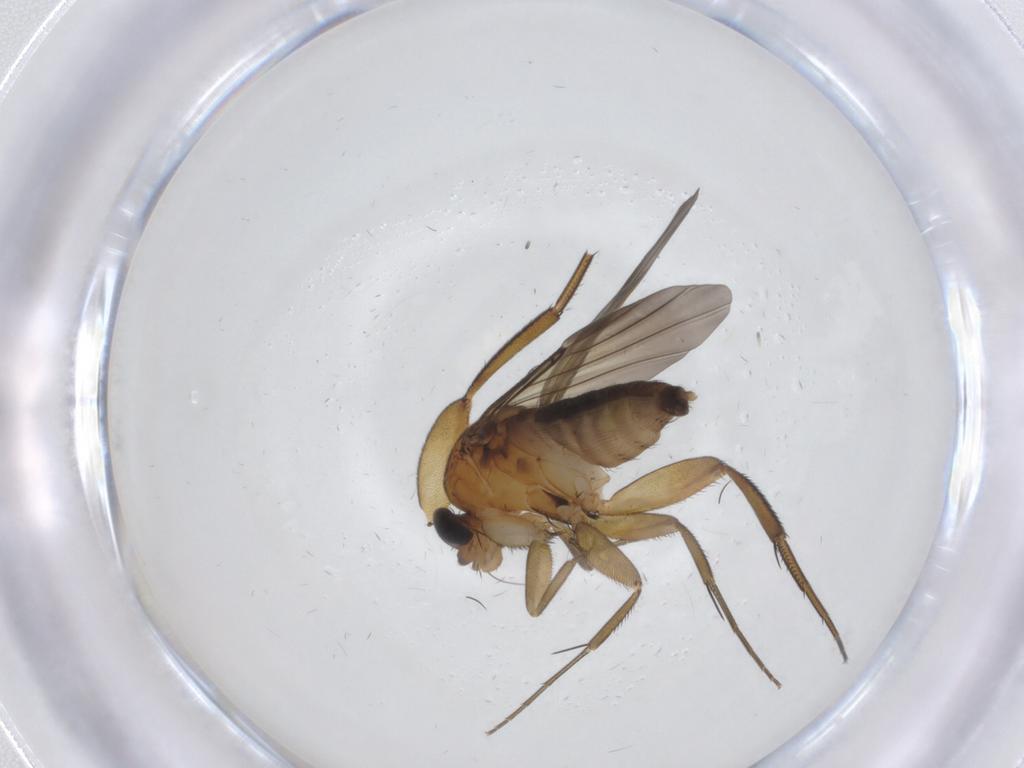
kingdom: Animalia
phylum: Arthropoda
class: Insecta
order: Diptera
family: Phoridae
